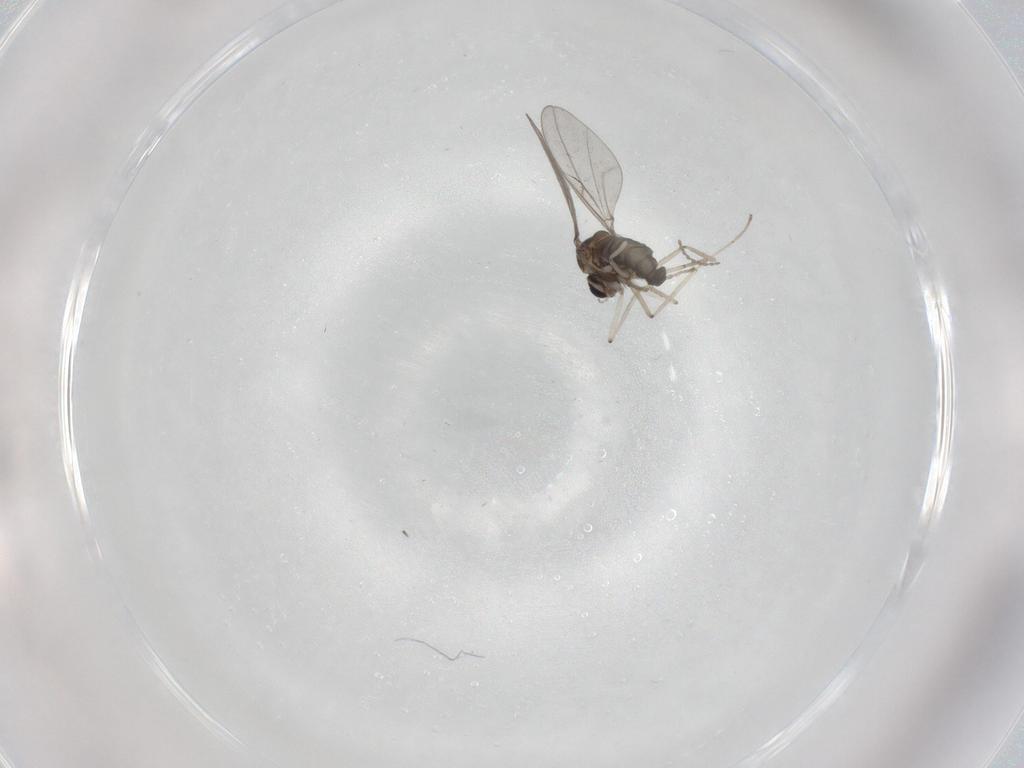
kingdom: Animalia
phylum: Arthropoda
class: Insecta
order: Diptera
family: Cecidomyiidae
